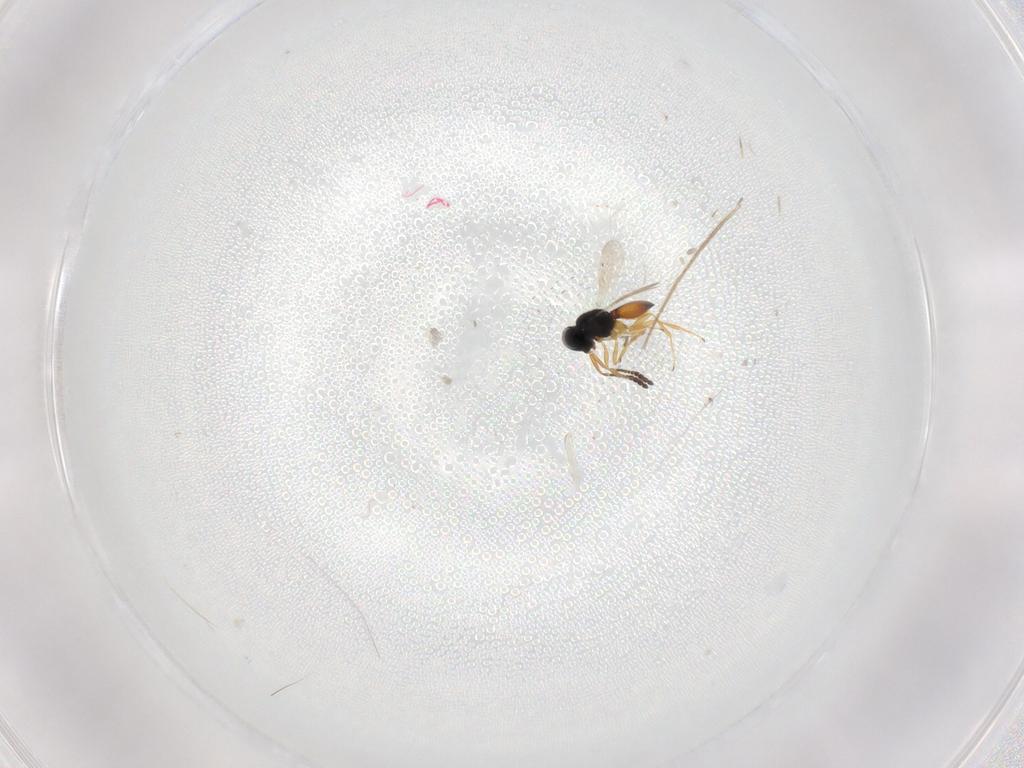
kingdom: Animalia
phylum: Arthropoda
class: Insecta
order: Hymenoptera
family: Scelionidae
